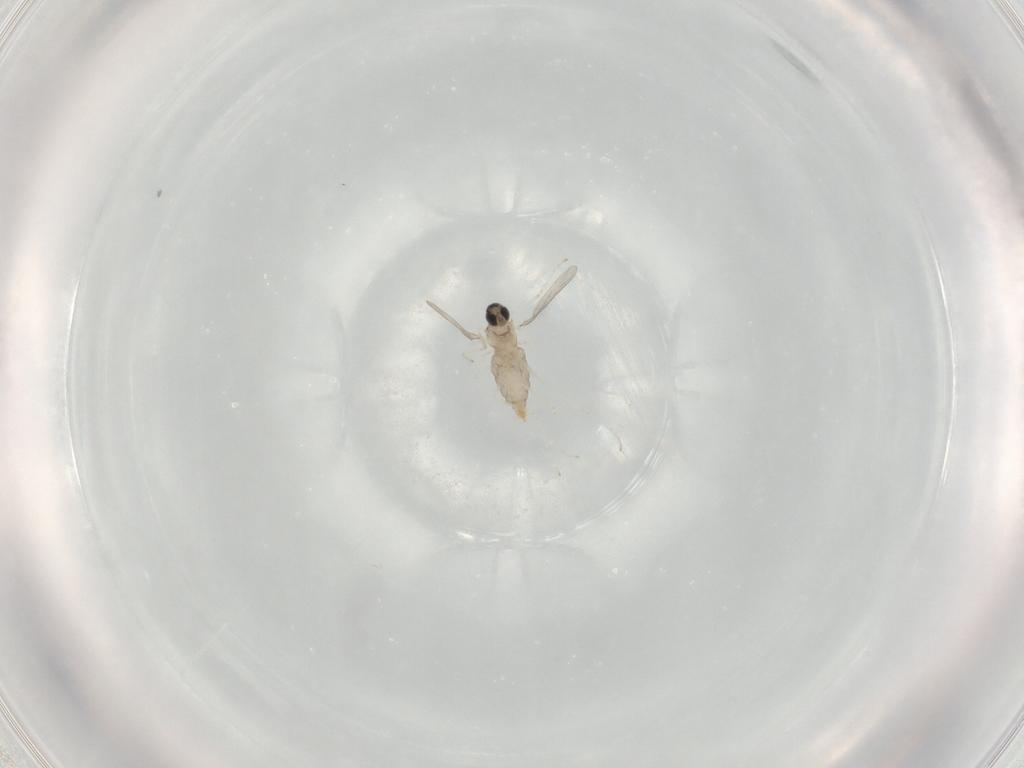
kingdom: Animalia
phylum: Arthropoda
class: Insecta
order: Diptera
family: Cecidomyiidae
